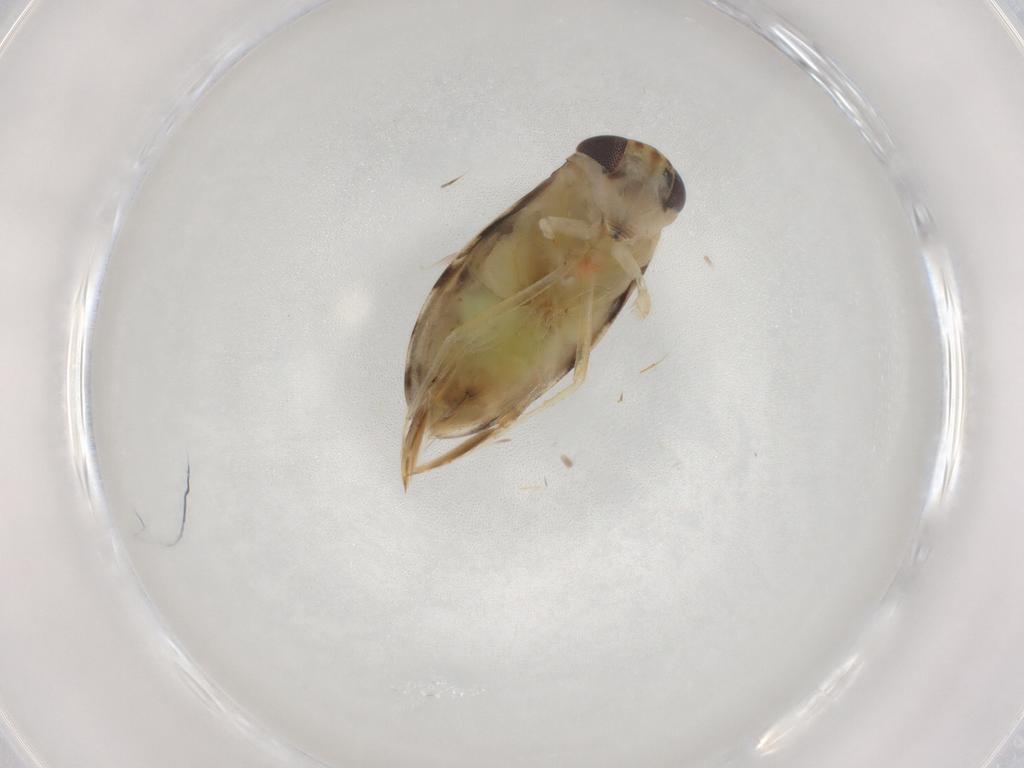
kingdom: Animalia
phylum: Arthropoda
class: Insecta
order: Hemiptera
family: Corixidae
